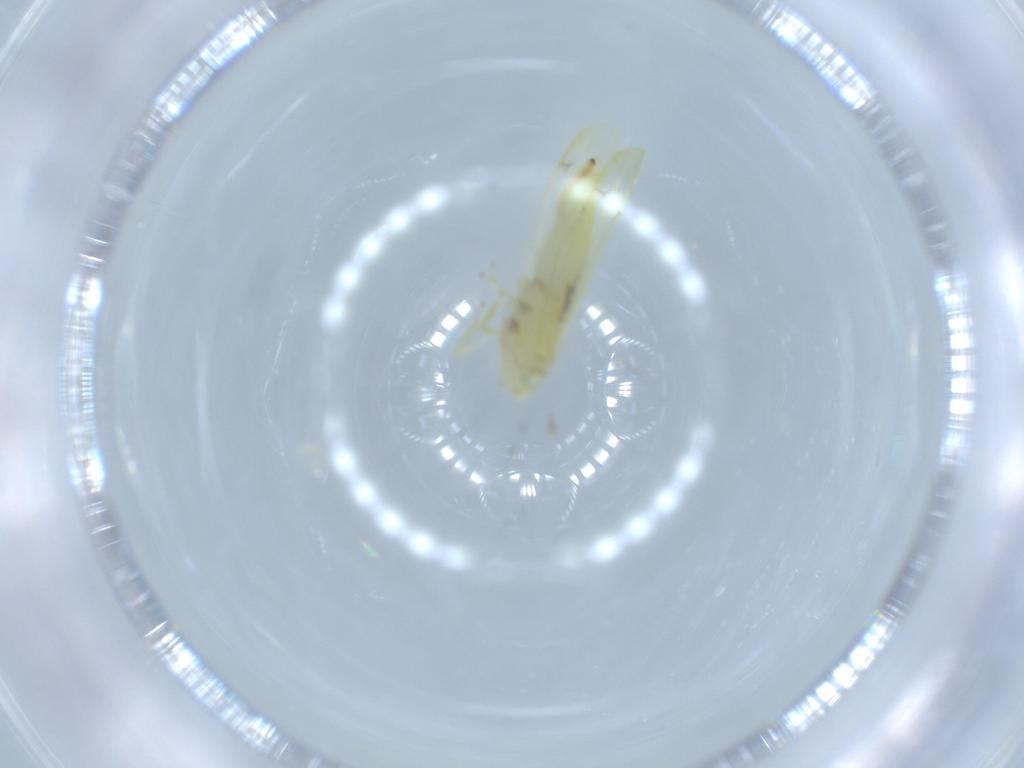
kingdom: Animalia
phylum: Arthropoda
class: Insecta
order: Hemiptera
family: Cicadellidae
